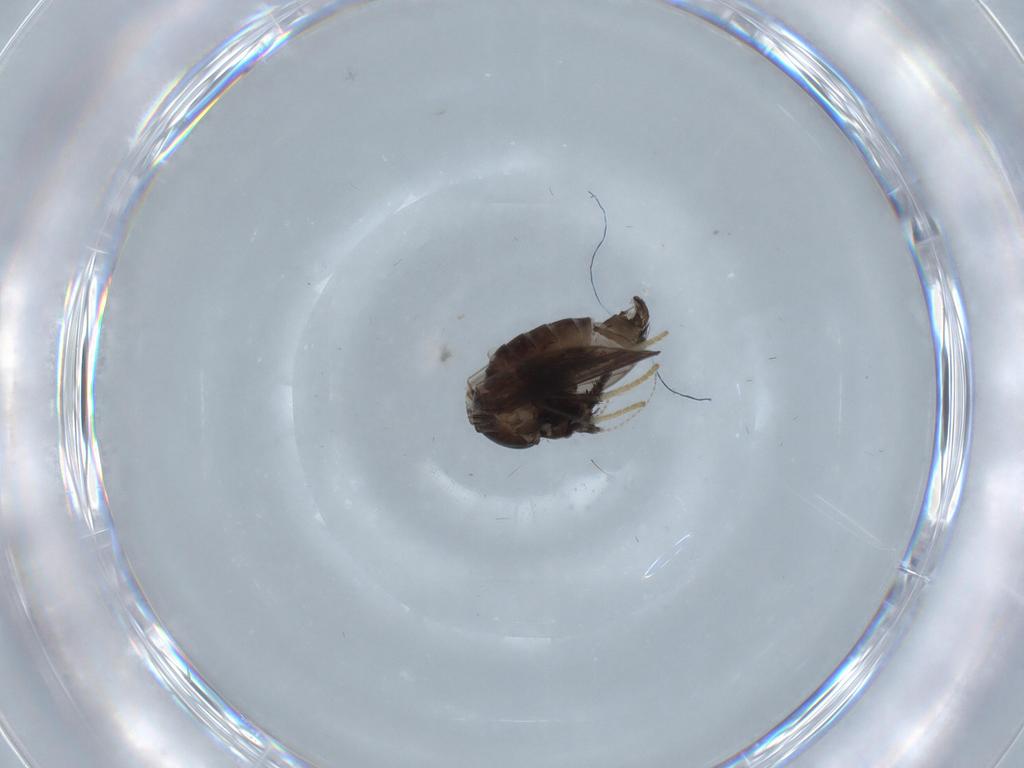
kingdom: Animalia
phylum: Arthropoda
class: Insecta
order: Diptera
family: Psychodidae
